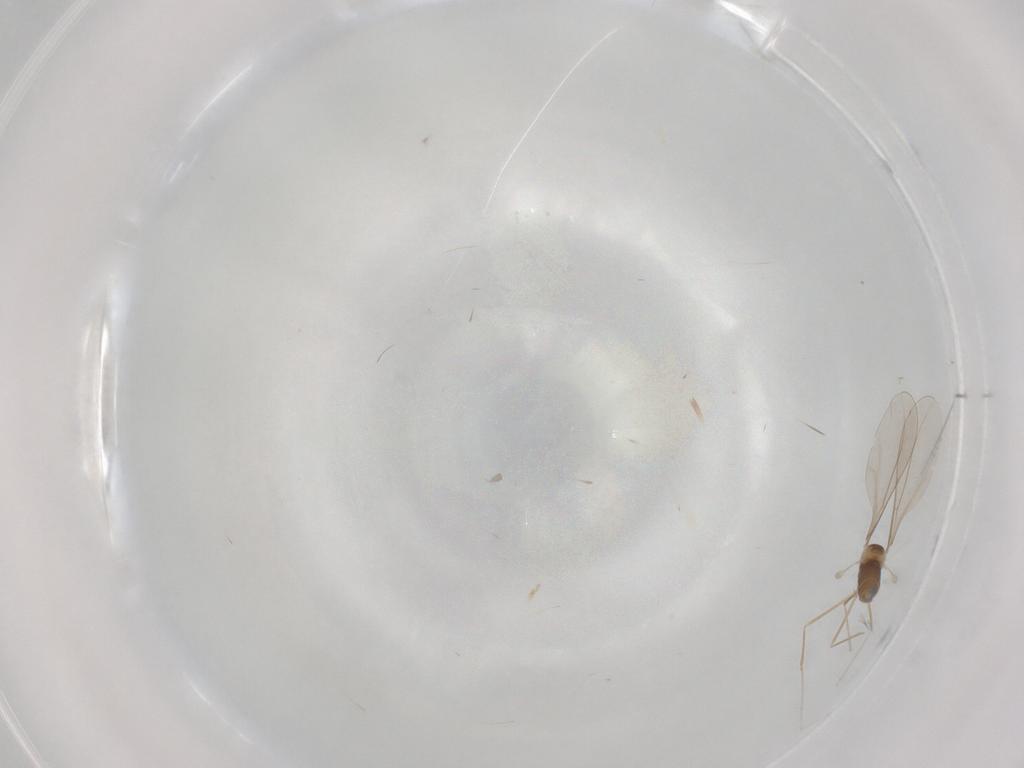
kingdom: Animalia
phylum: Arthropoda
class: Insecta
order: Diptera
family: Cecidomyiidae
